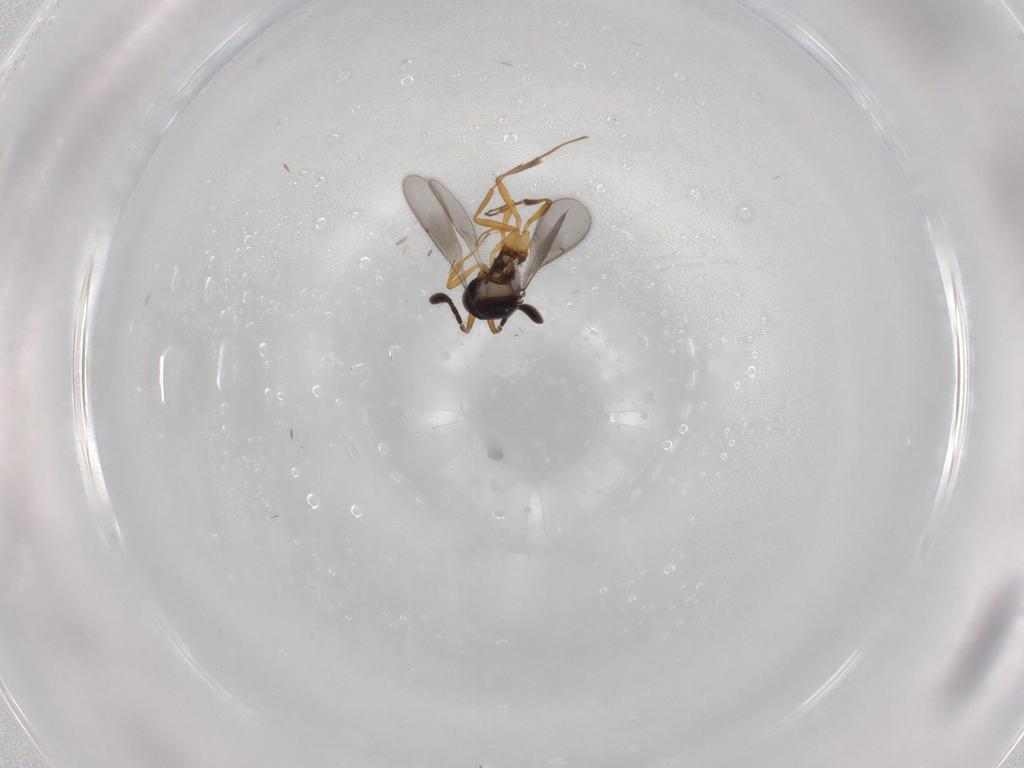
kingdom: Animalia
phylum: Arthropoda
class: Insecta
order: Hymenoptera
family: Scelionidae
